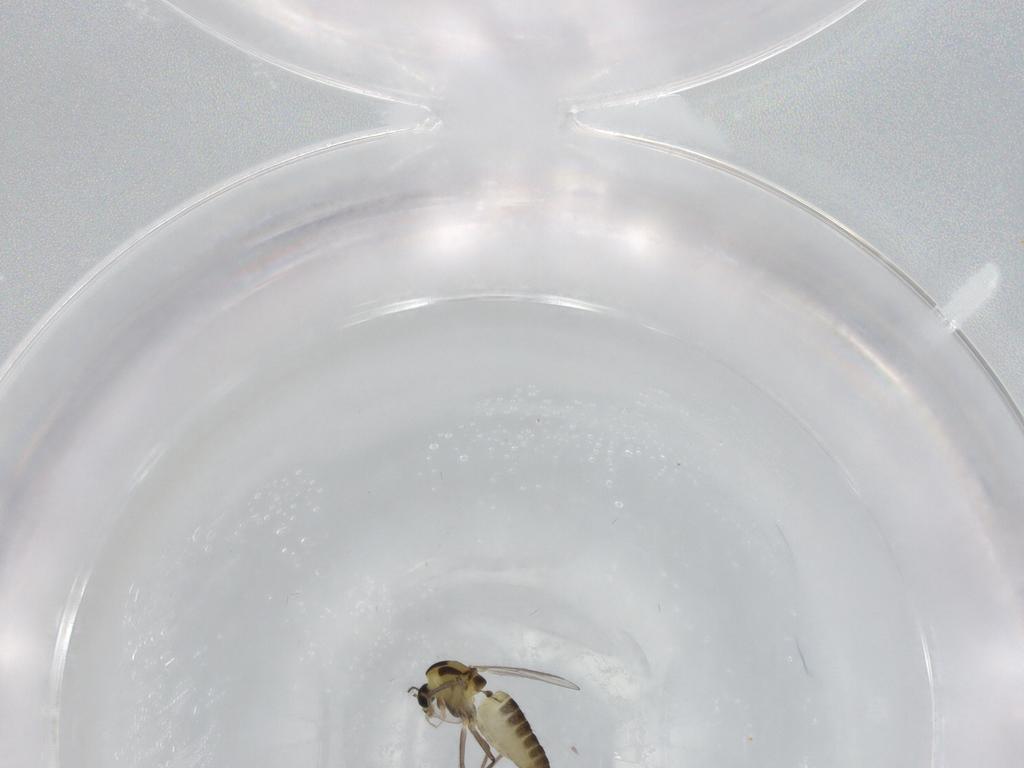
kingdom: Animalia
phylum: Arthropoda
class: Insecta
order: Diptera
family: Chironomidae
